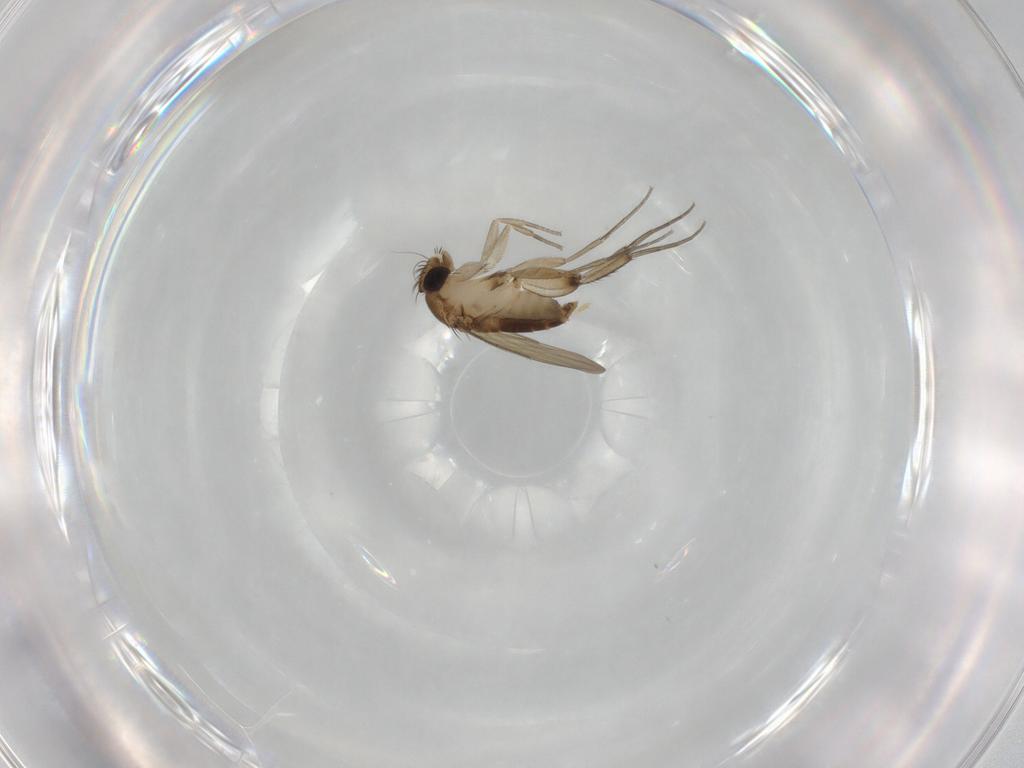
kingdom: Animalia
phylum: Arthropoda
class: Insecta
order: Diptera
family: Phoridae
